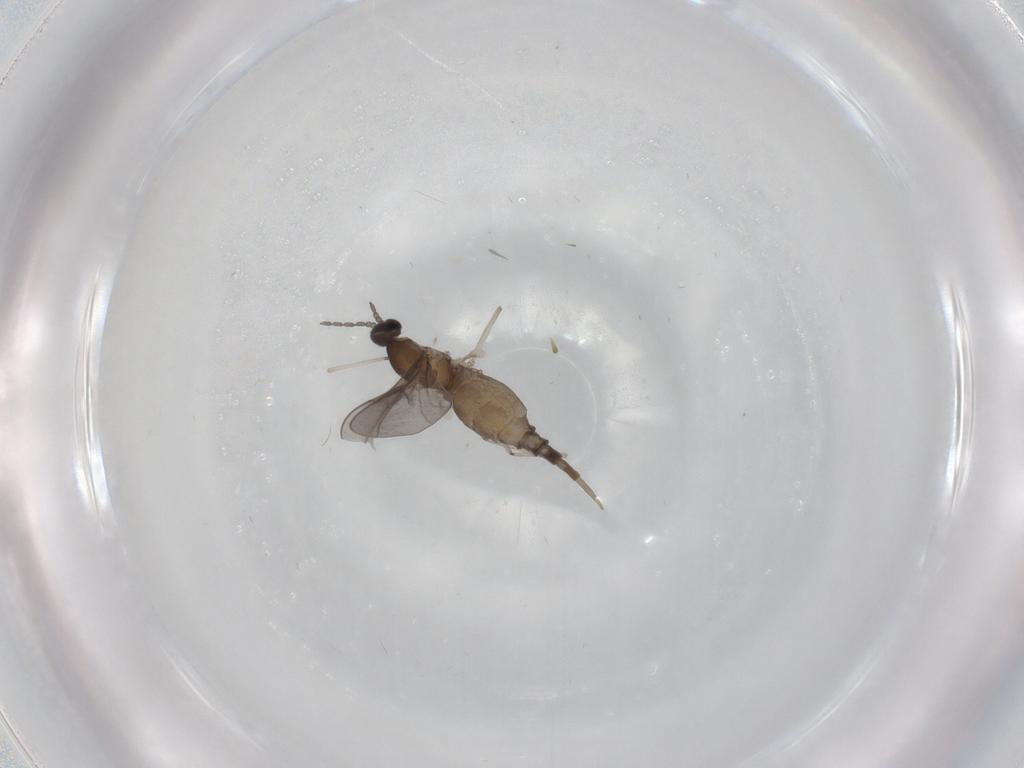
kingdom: Animalia
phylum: Arthropoda
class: Insecta
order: Diptera
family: Cecidomyiidae
